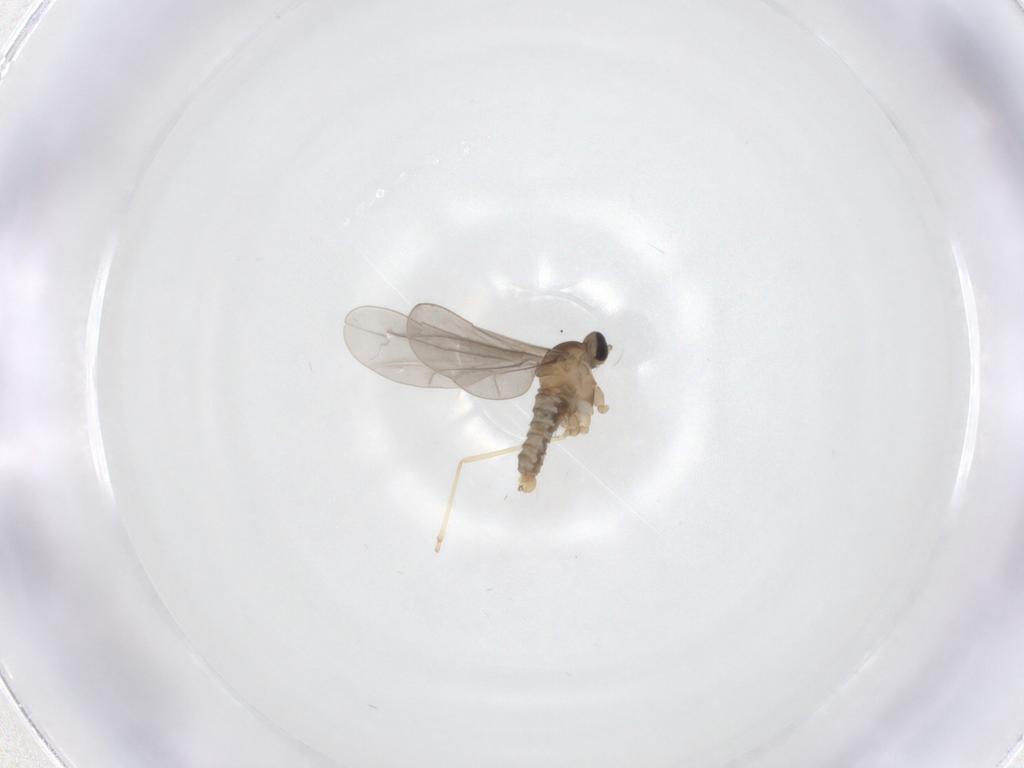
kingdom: Animalia
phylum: Arthropoda
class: Insecta
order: Diptera
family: Cecidomyiidae
